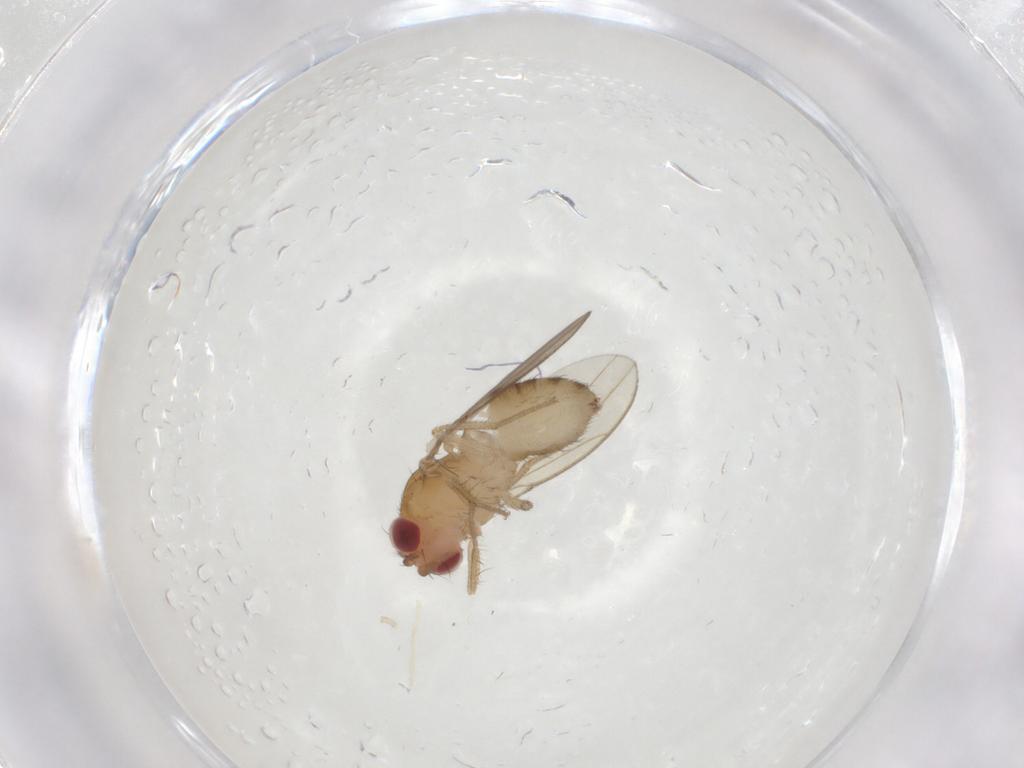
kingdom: Animalia
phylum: Arthropoda
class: Insecta
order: Diptera
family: Drosophilidae
